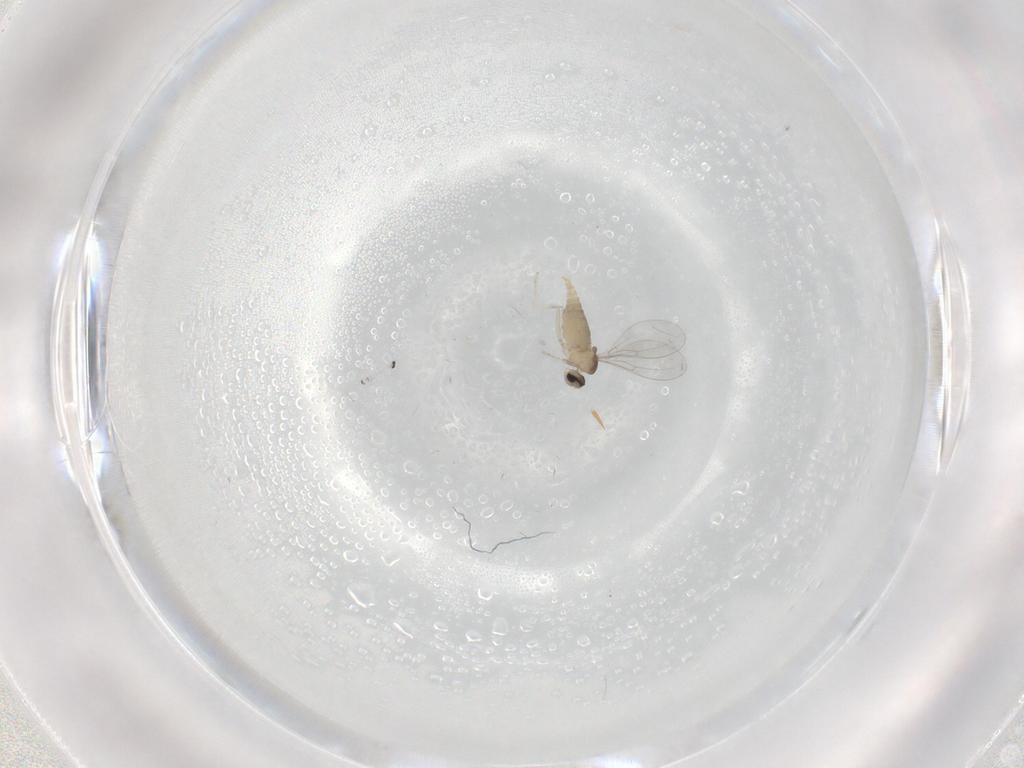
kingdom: Animalia
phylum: Arthropoda
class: Insecta
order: Diptera
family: Cecidomyiidae
